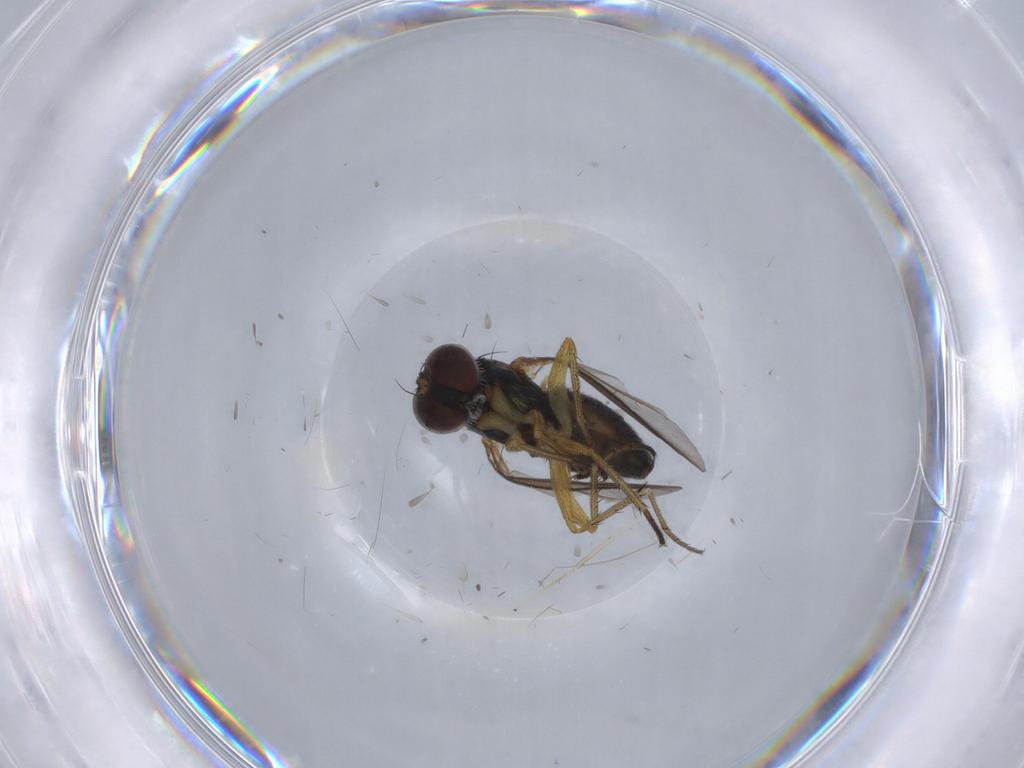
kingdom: Animalia
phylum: Arthropoda
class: Insecta
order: Diptera
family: Dolichopodidae
